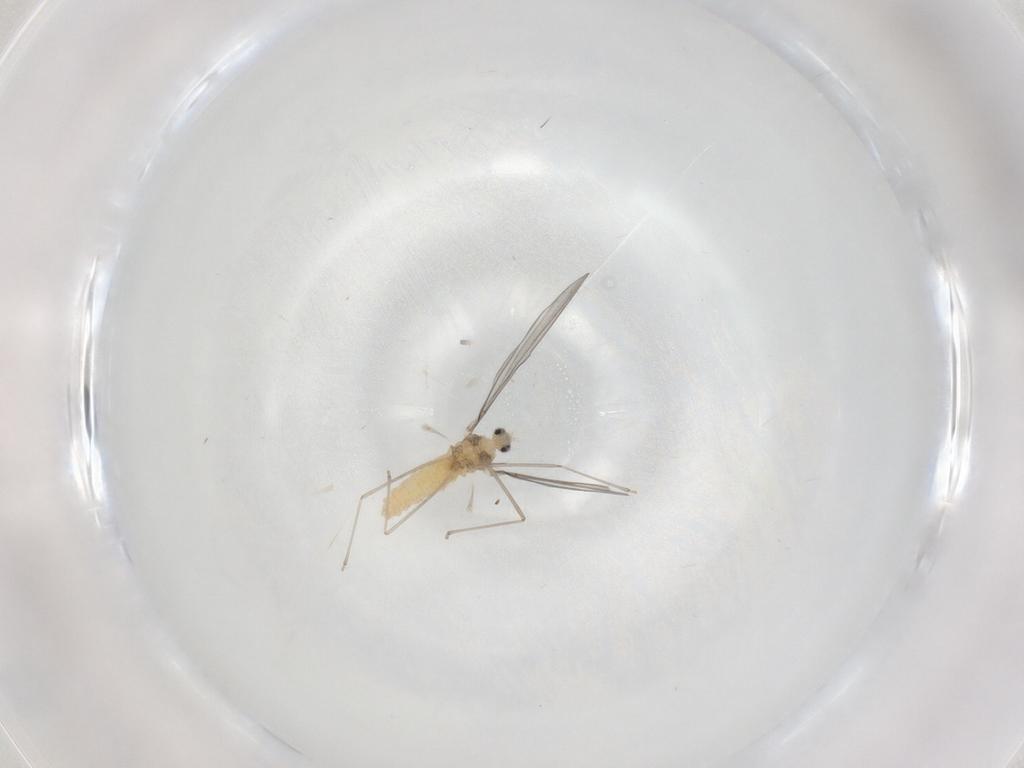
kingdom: Animalia
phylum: Arthropoda
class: Insecta
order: Diptera
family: Cecidomyiidae
